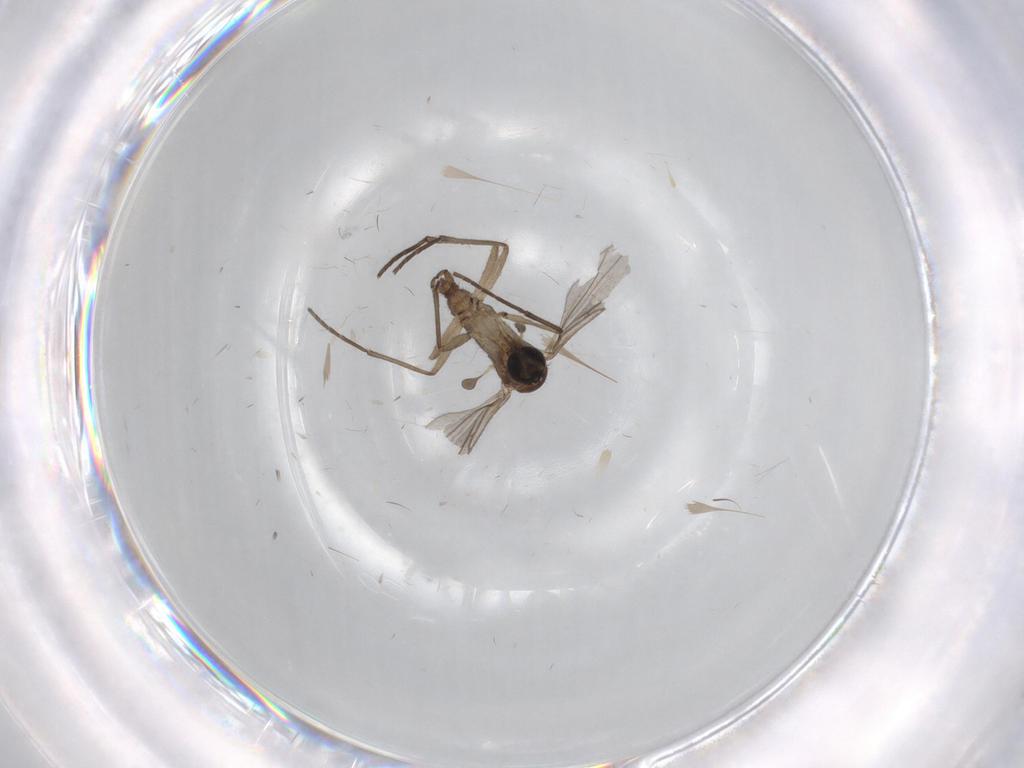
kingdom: Animalia
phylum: Arthropoda
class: Insecta
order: Diptera
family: Sciaridae
